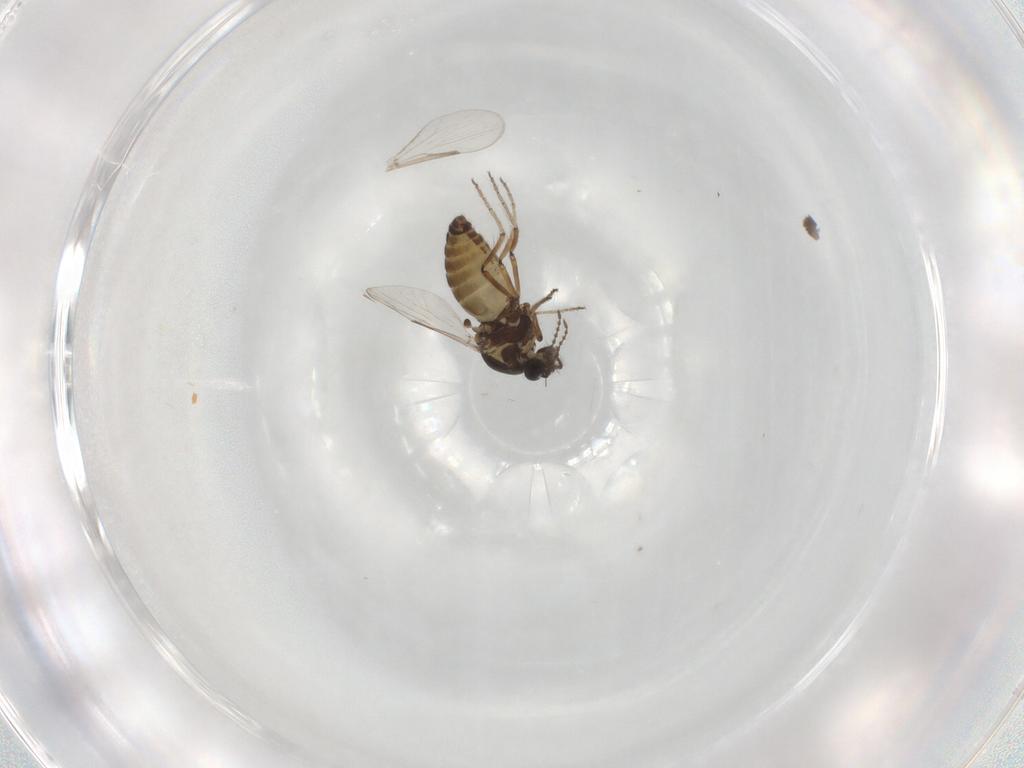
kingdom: Animalia
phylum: Arthropoda
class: Insecta
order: Diptera
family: Ceratopogonidae
